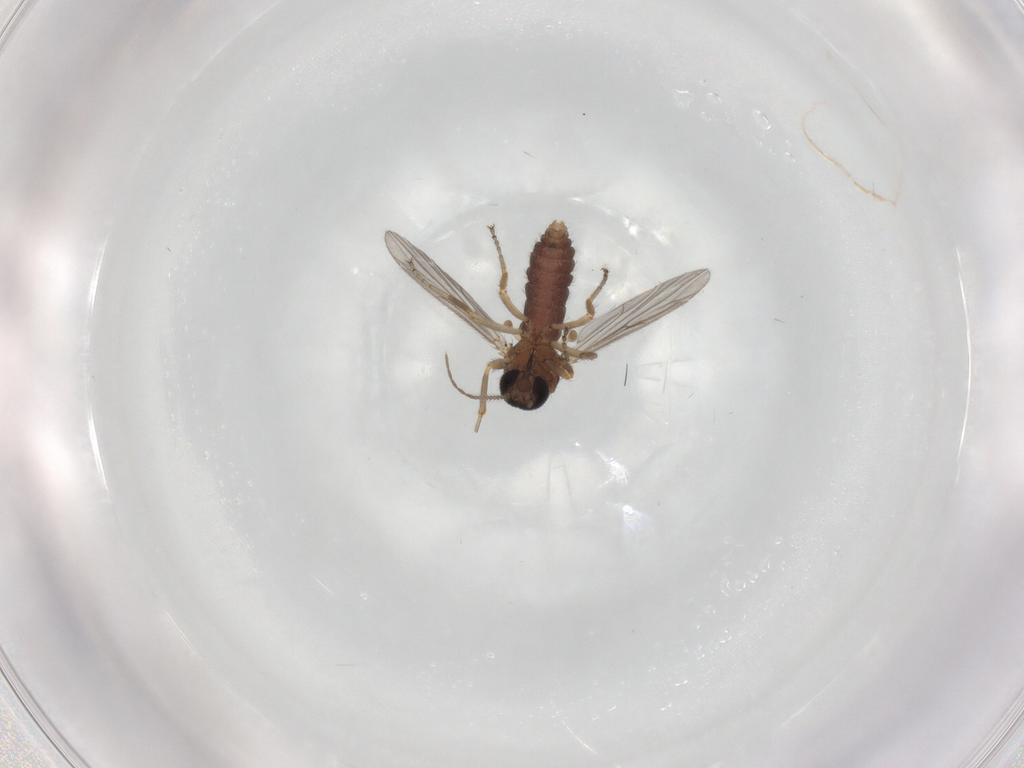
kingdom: Animalia
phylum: Arthropoda
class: Insecta
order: Diptera
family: Ceratopogonidae
